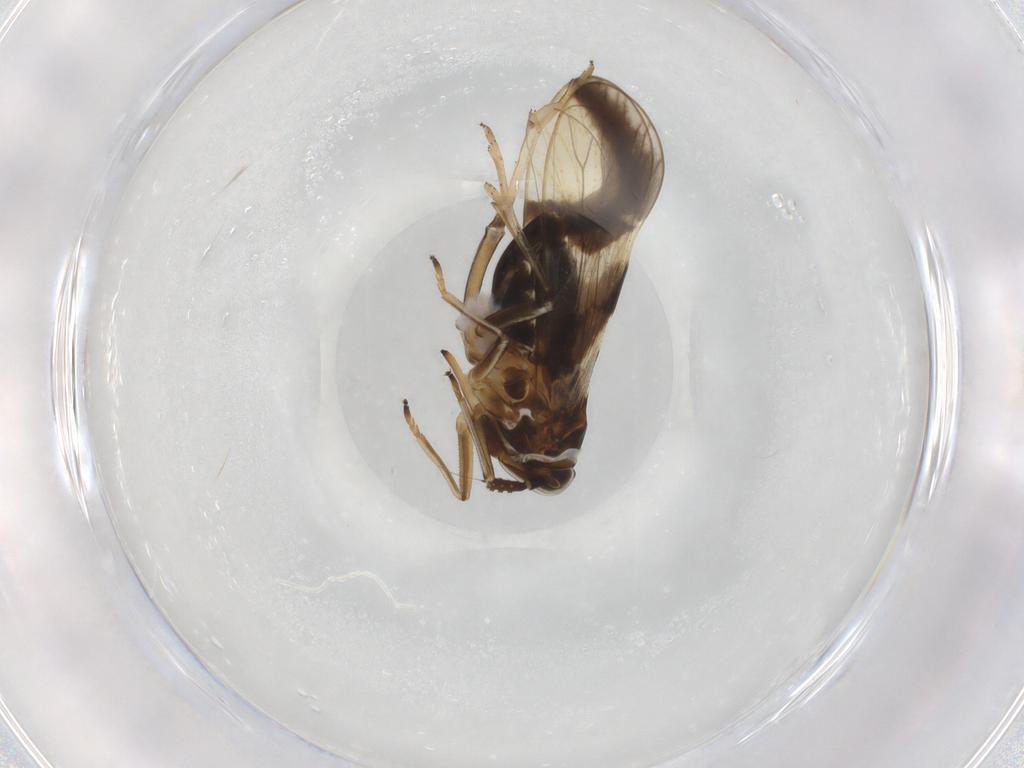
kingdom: Animalia
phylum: Arthropoda
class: Insecta
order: Hemiptera
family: Delphacidae
